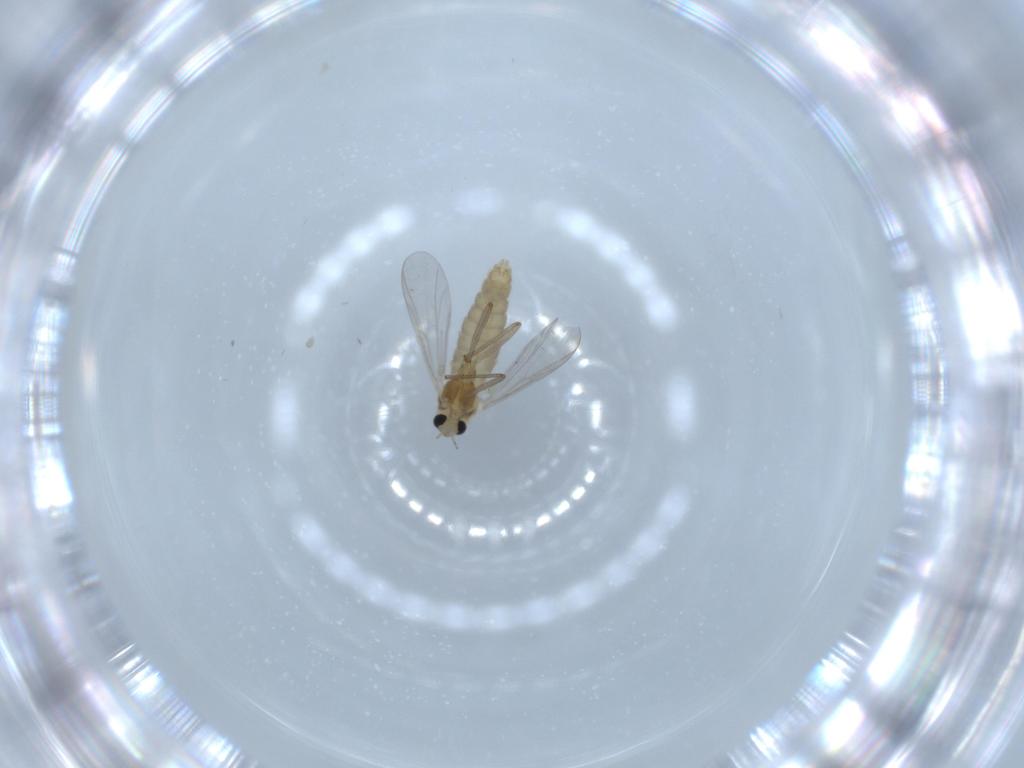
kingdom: Animalia
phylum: Arthropoda
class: Insecta
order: Diptera
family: Chironomidae
